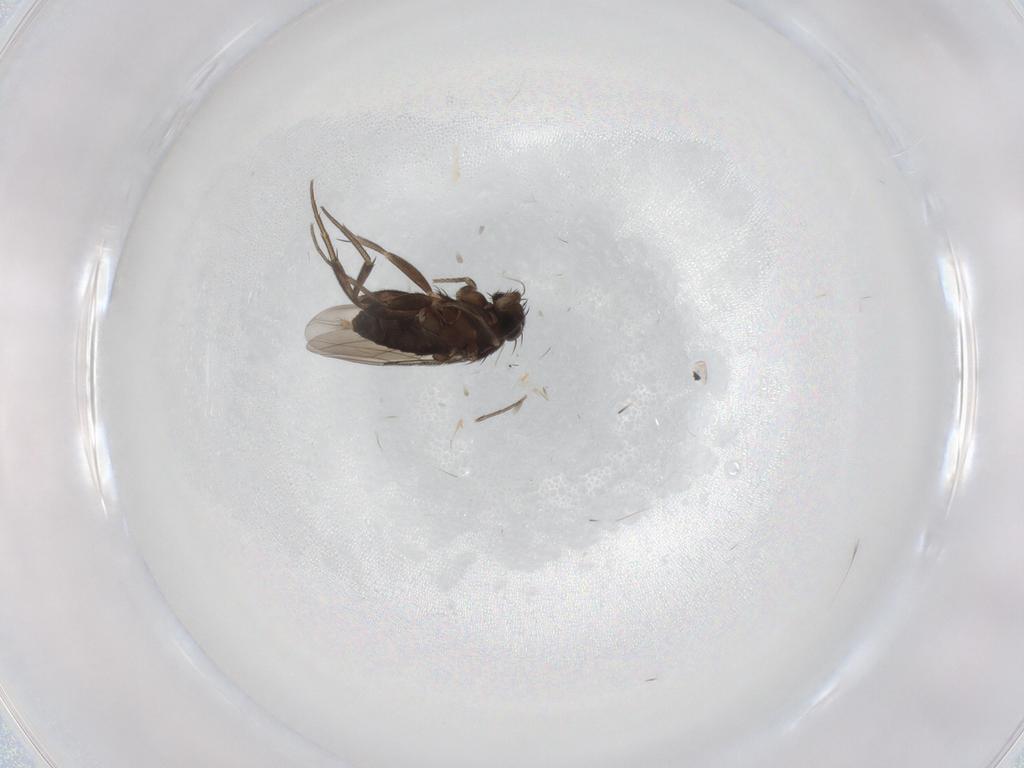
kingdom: Animalia
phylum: Arthropoda
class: Insecta
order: Diptera
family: Phoridae
